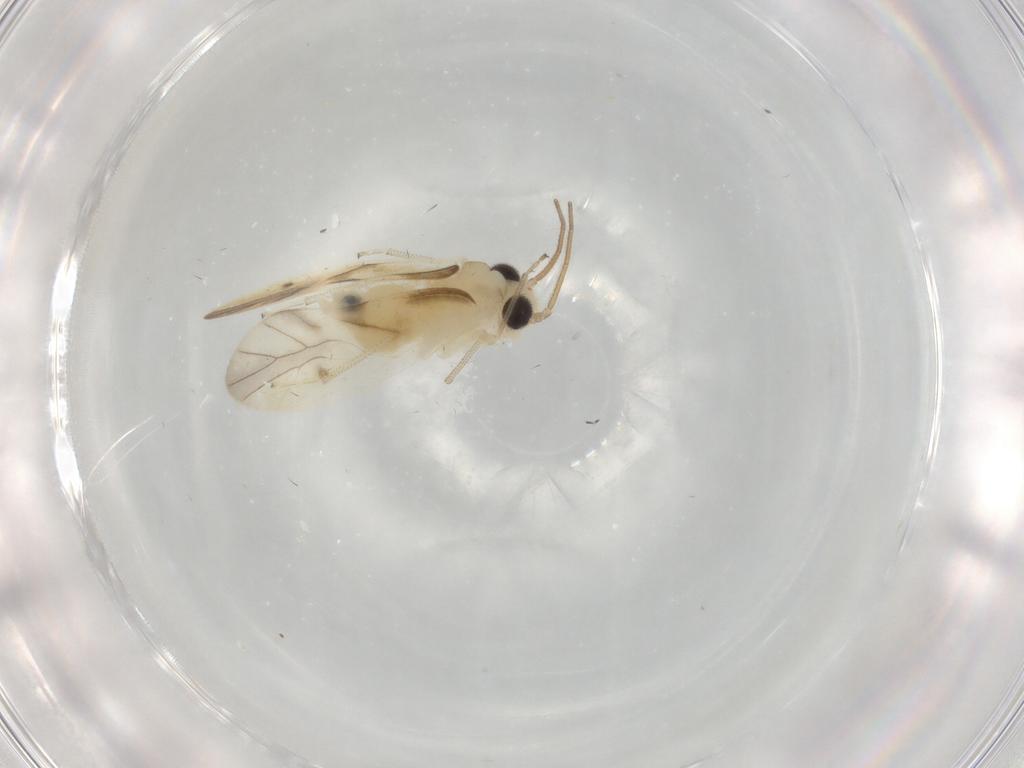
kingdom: Animalia
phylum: Arthropoda
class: Insecta
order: Psocodea
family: Caeciliusidae
